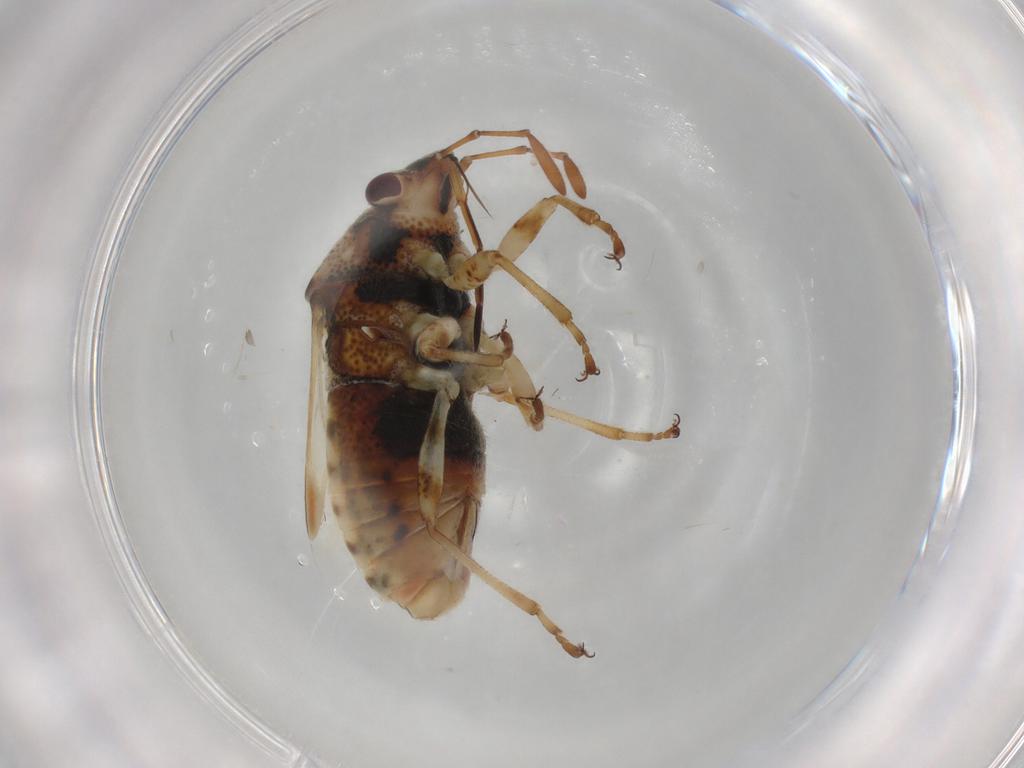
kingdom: Animalia
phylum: Arthropoda
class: Insecta
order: Hemiptera
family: Lygaeidae
